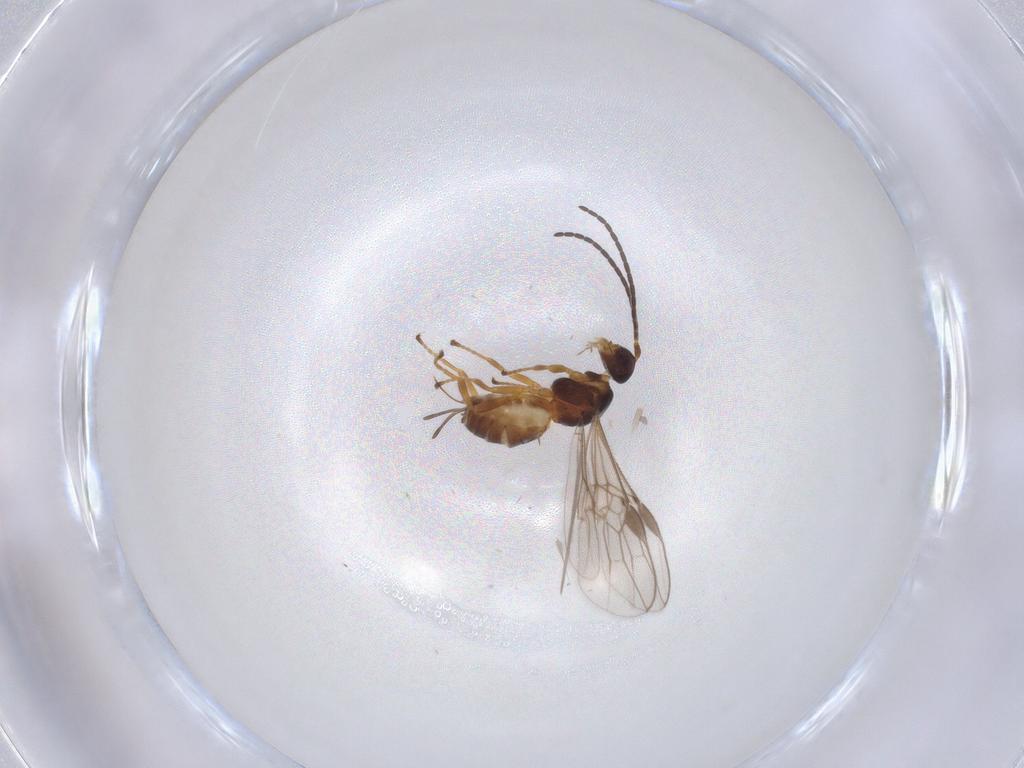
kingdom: Animalia
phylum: Arthropoda
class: Insecta
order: Hymenoptera
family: Braconidae
